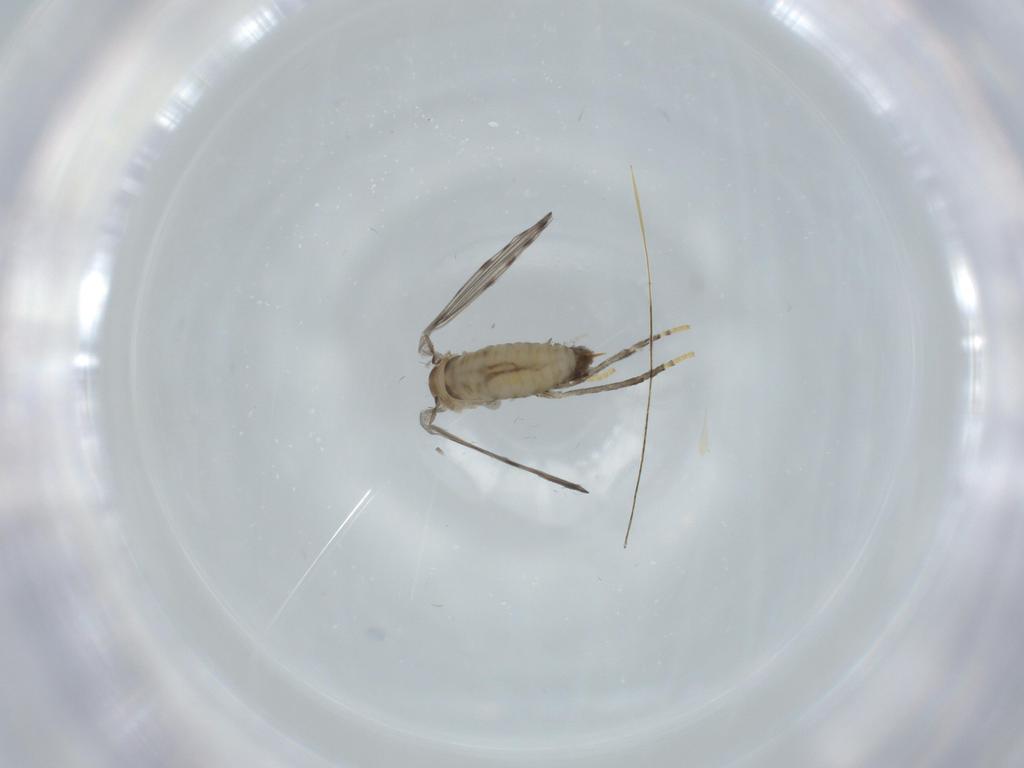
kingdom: Animalia
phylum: Arthropoda
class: Insecta
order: Diptera
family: Psychodidae
